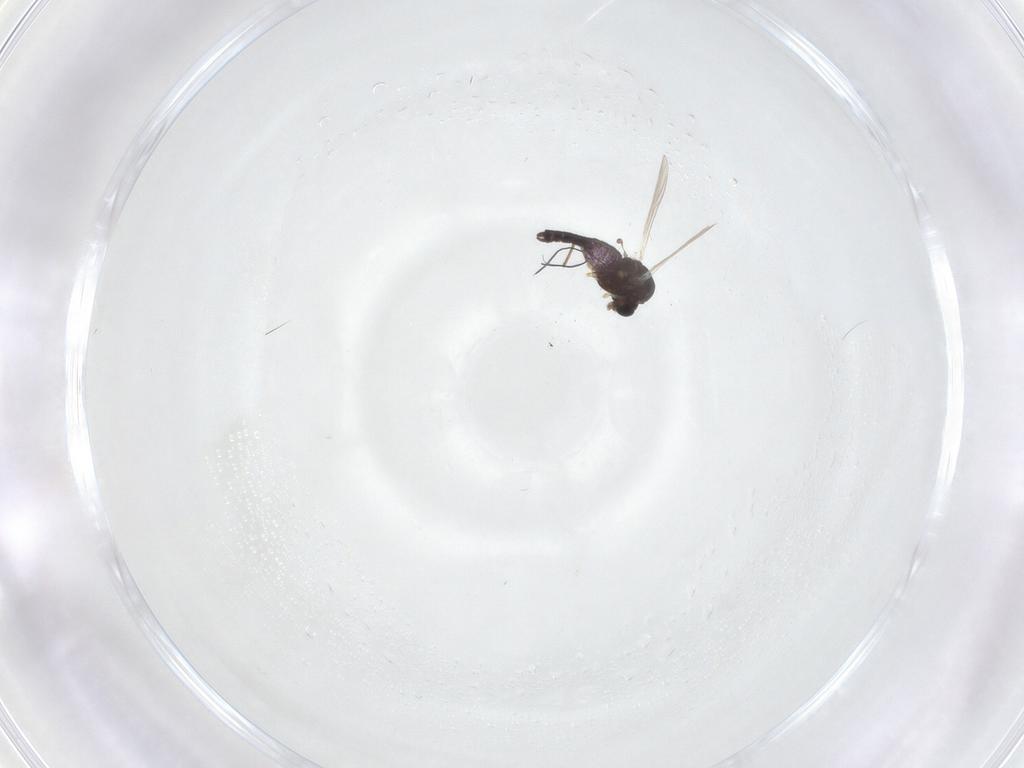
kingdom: Animalia
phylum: Arthropoda
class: Insecta
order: Diptera
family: Chironomidae
